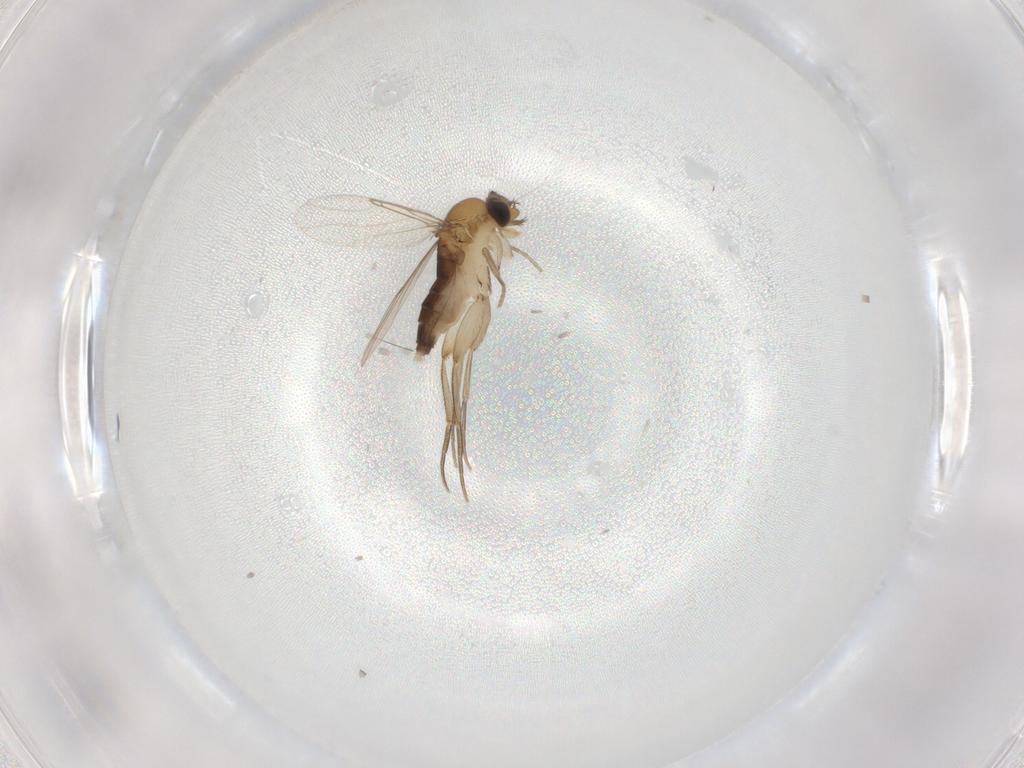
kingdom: Animalia
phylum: Arthropoda
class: Insecta
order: Diptera
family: Phoridae
